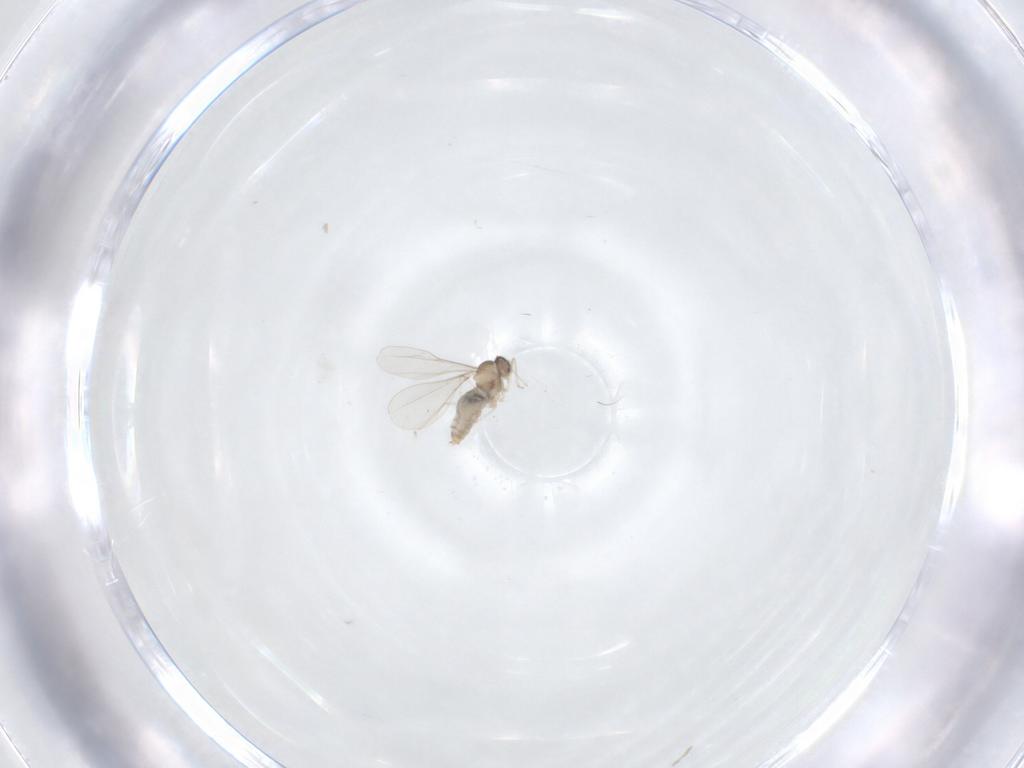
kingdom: Animalia
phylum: Arthropoda
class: Insecta
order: Diptera
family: Cecidomyiidae
